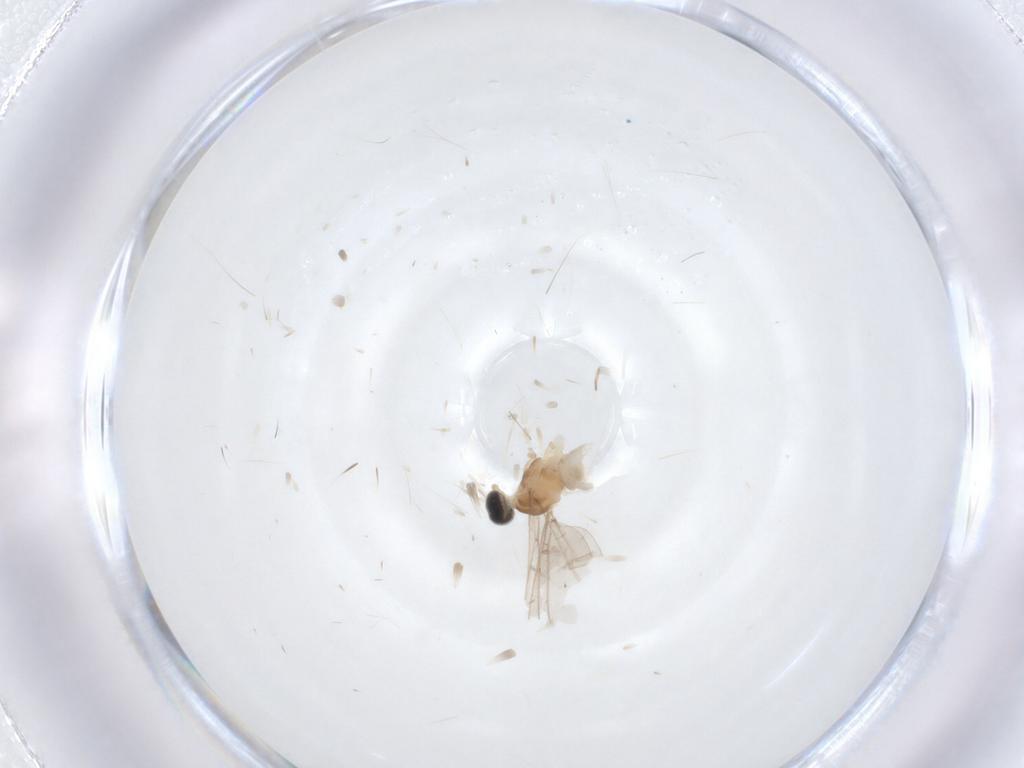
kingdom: Animalia
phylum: Arthropoda
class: Insecta
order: Diptera
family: Cecidomyiidae
